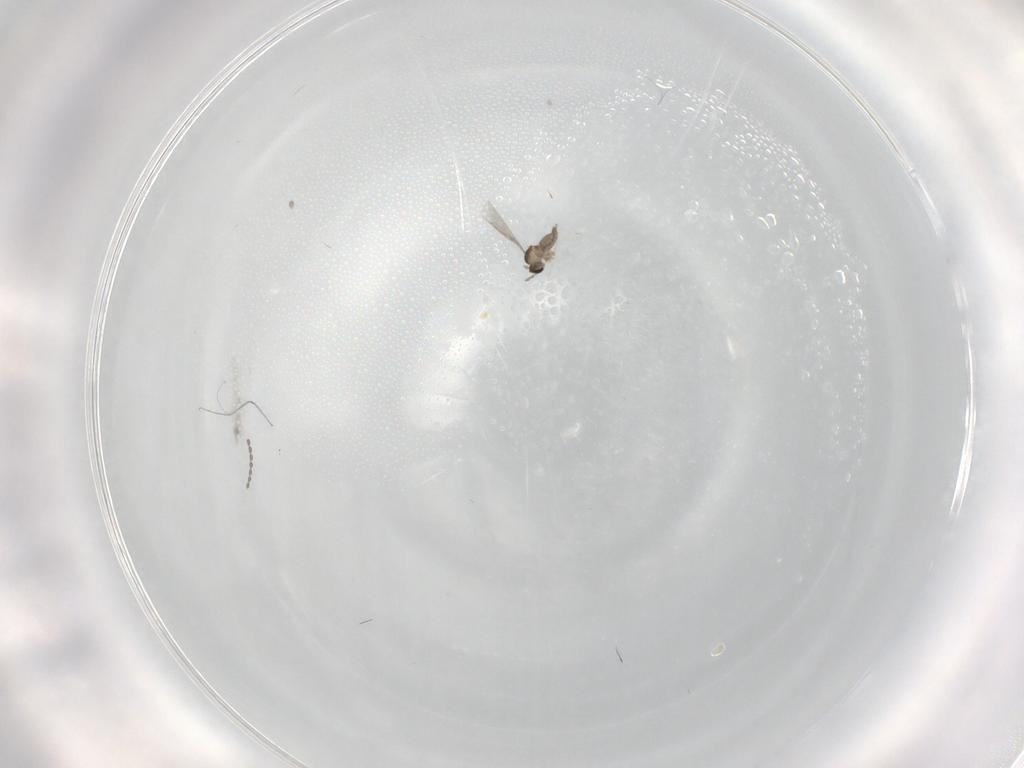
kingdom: Animalia
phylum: Arthropoda
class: Insecta
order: Diptera
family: Cecidomyiidae
